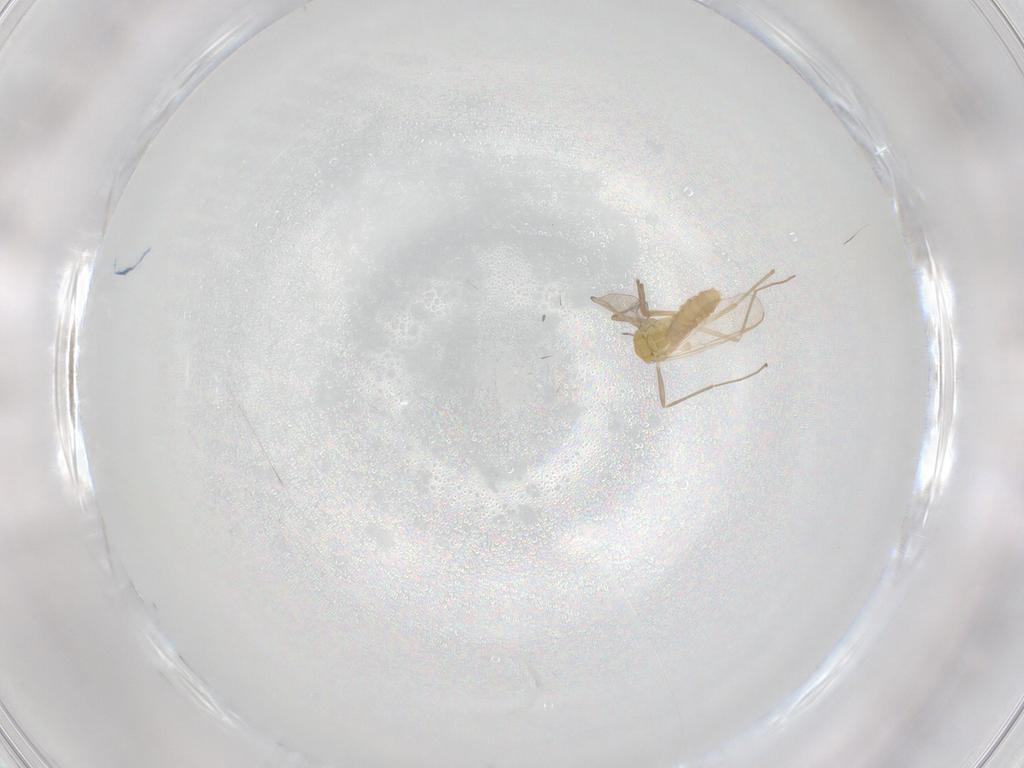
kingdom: Animalia
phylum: Arthropoda
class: Insecta
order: Diptera
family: Chironomidae
